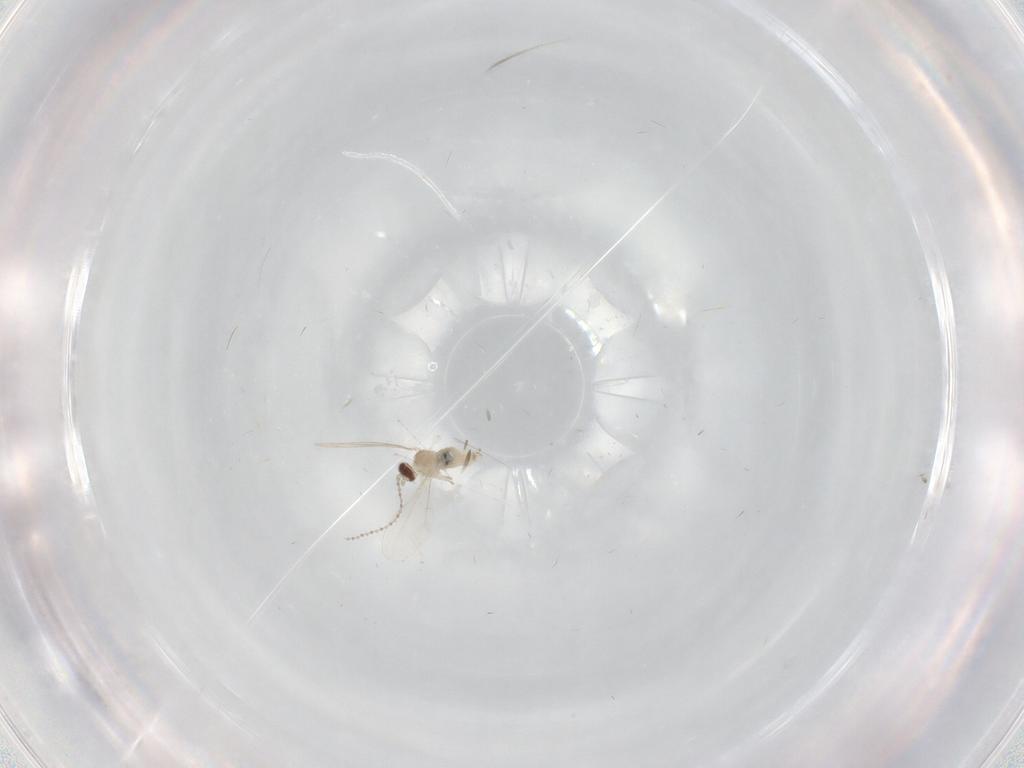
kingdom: Animalia
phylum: Arthropoda
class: Insecta
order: Diptera
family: Cecidomyiidae
